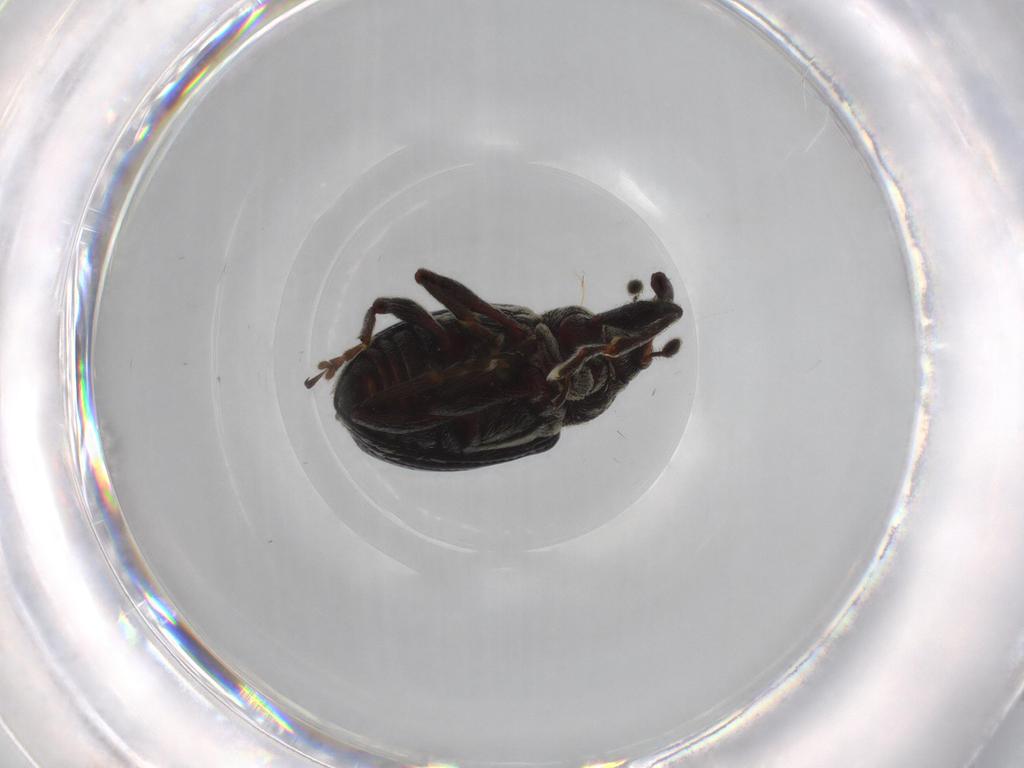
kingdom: Animalia
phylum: Arthropoda
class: Insecta
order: Coleoptera
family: Curculionidae
